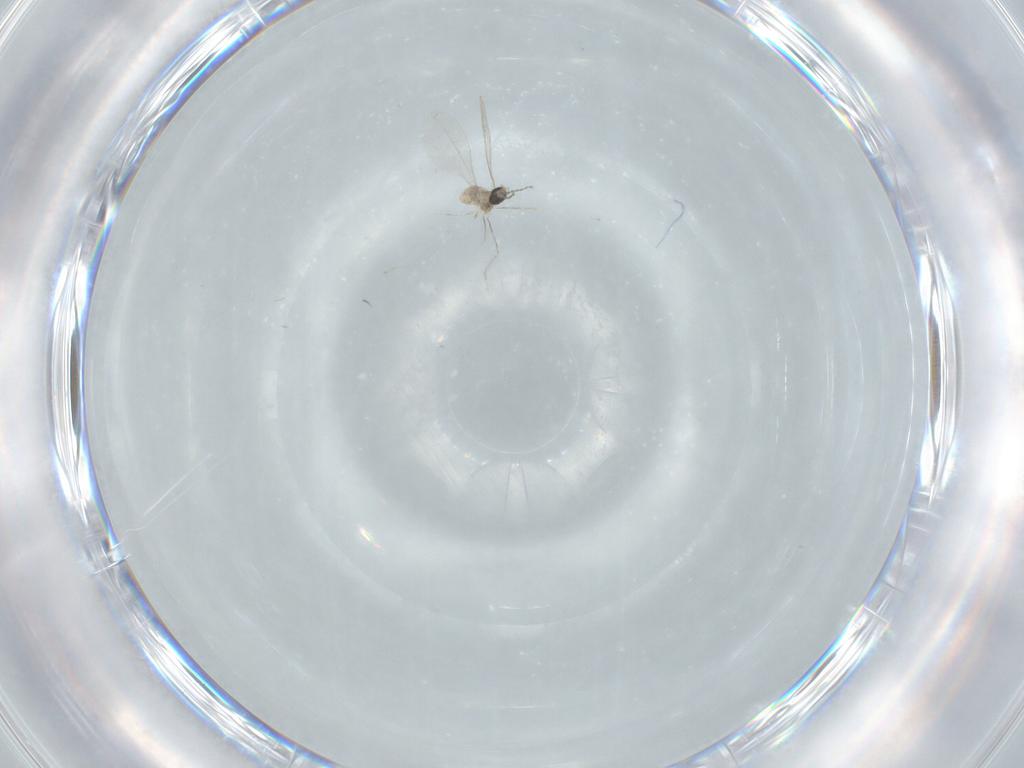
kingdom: Animalia
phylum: Arthropoda
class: Insecta
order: Diptera
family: Cecidomyiidae
